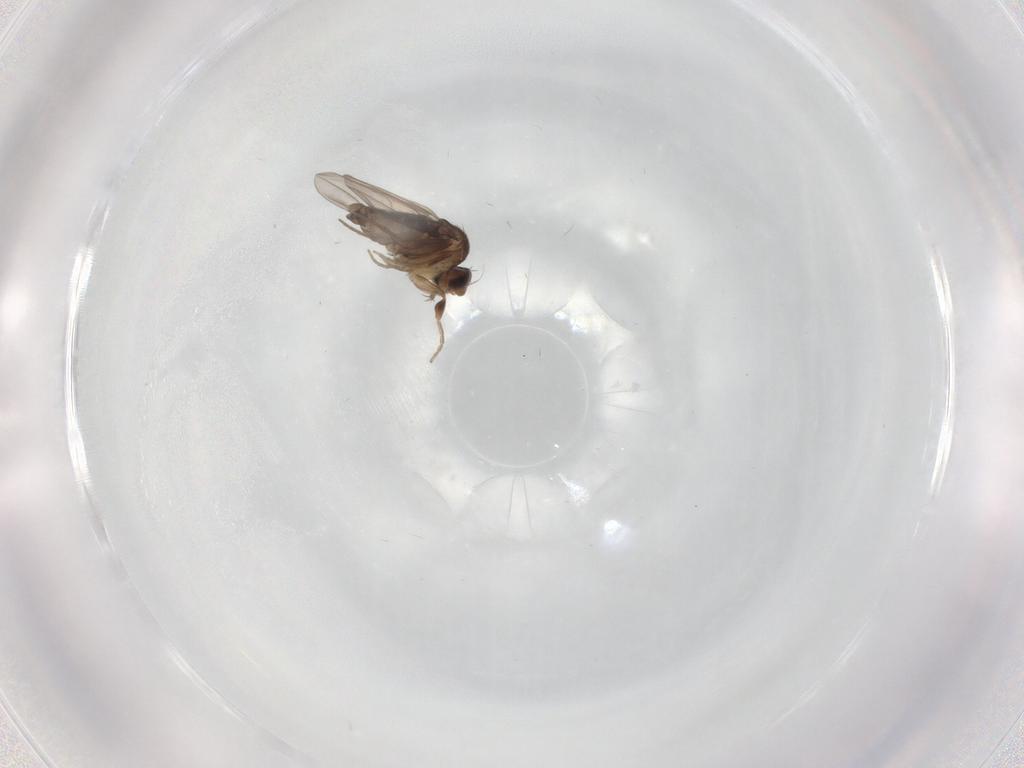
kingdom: Animalia
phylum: Arthropoda
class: Insecta
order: Diptera
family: Phoridae
